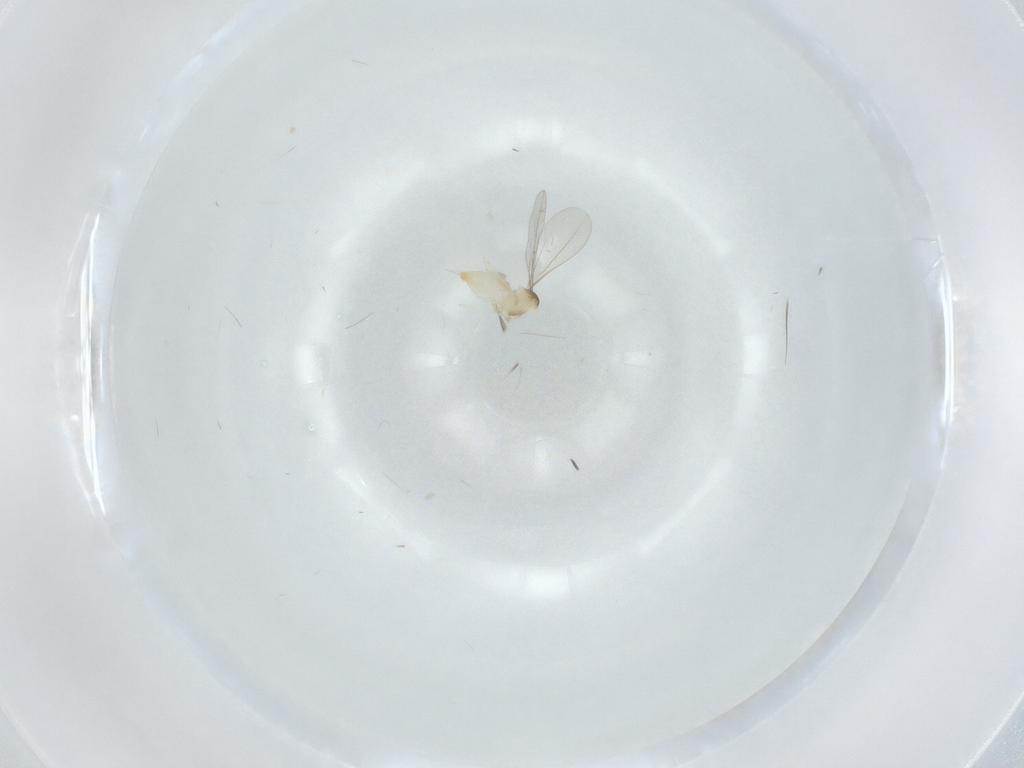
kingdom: Animalia
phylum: Arthropoda
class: Insecta
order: Diptera
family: Cecidomyiidae
